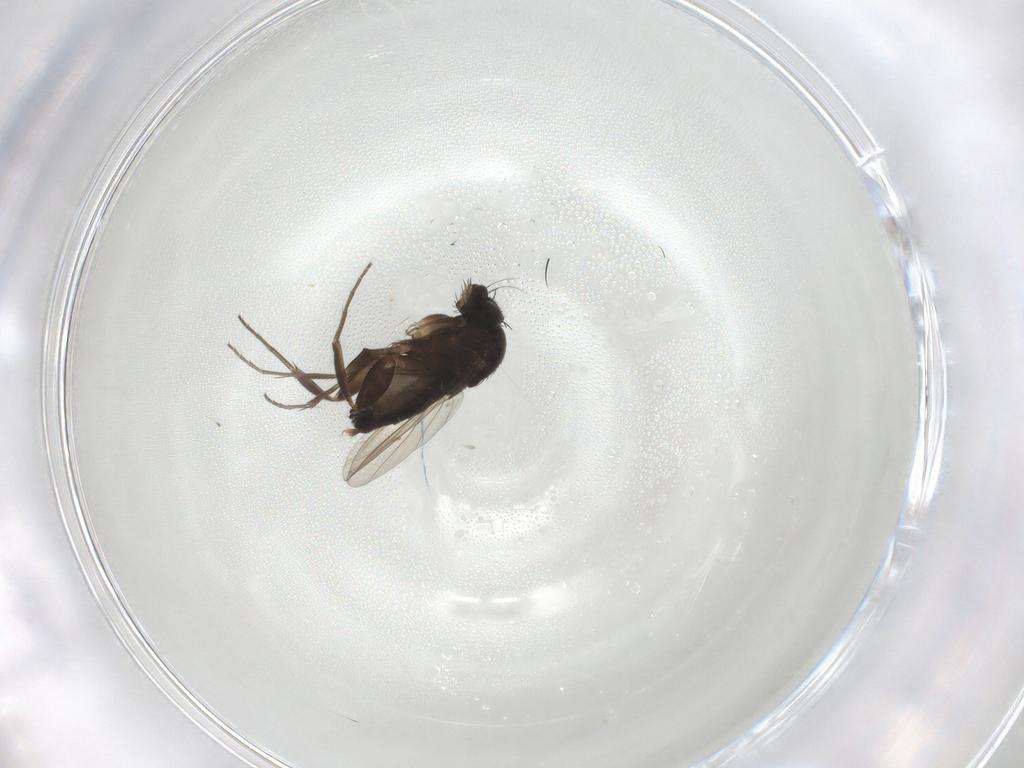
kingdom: Animalia
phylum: Arthropoda
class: Insecta
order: Diptera
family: Phoridae
